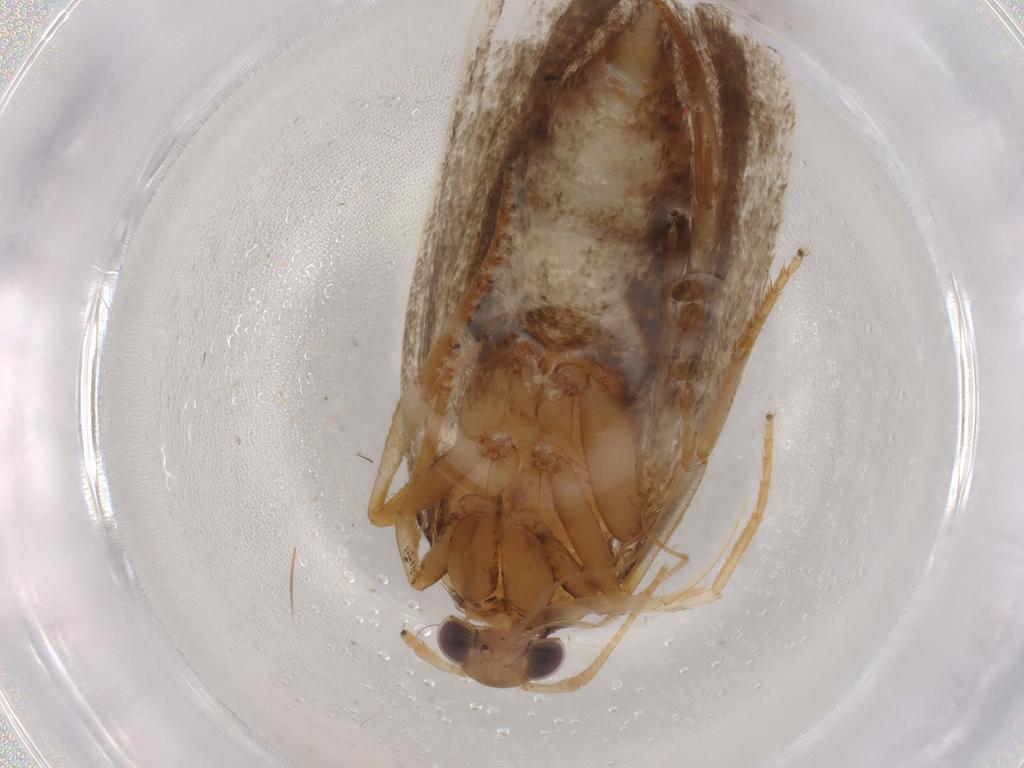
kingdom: Animalia
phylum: Arthropoda
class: Insecta
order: Lepidoptera
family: Lecithoceridae
